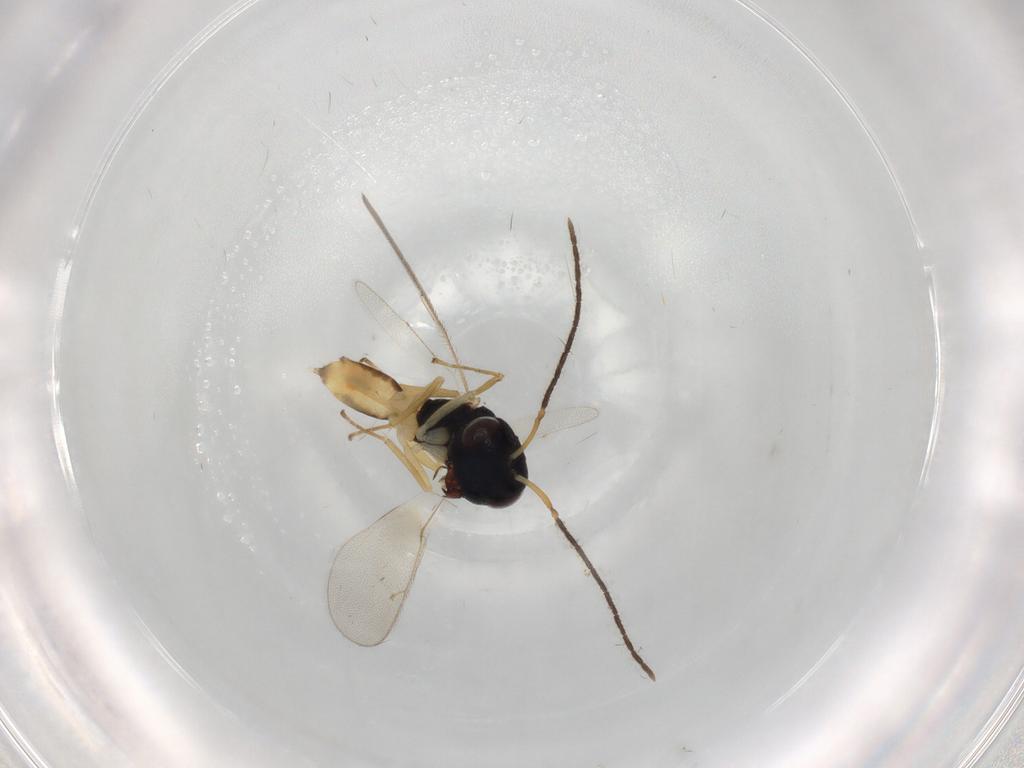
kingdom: Animalia
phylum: Arthropoda
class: Insecta
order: Hymenoptera
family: Pteromalidae
